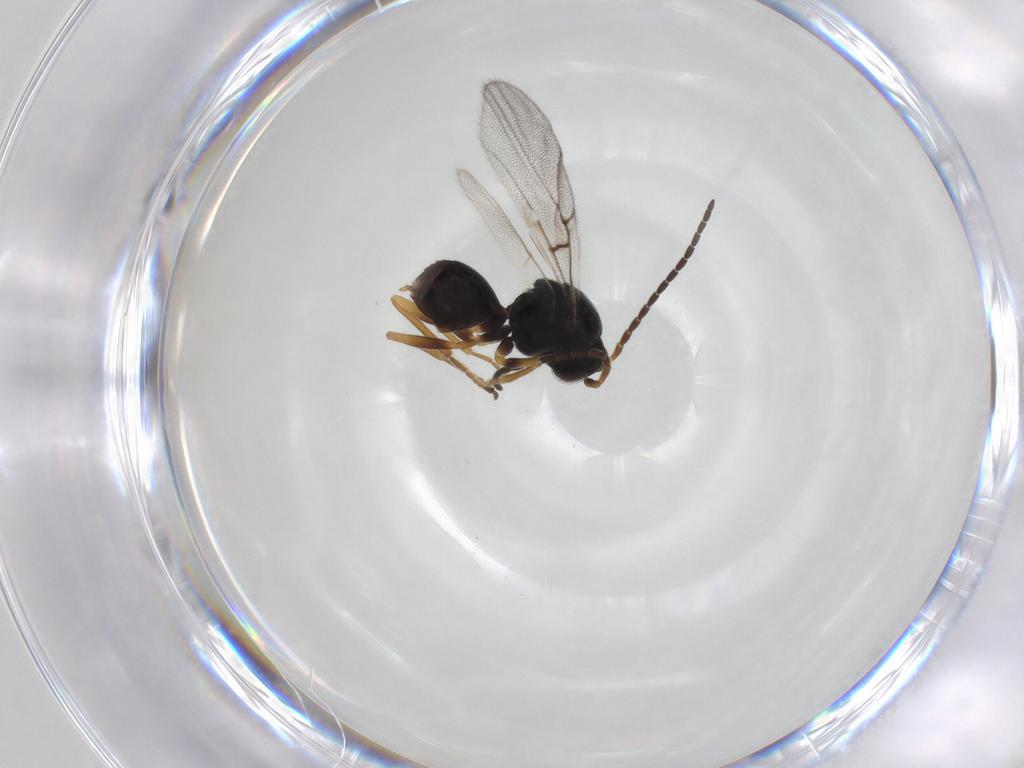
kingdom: Animalia
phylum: Arthropoda
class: Insecta
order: Hymenoptera
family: Cynipidae
